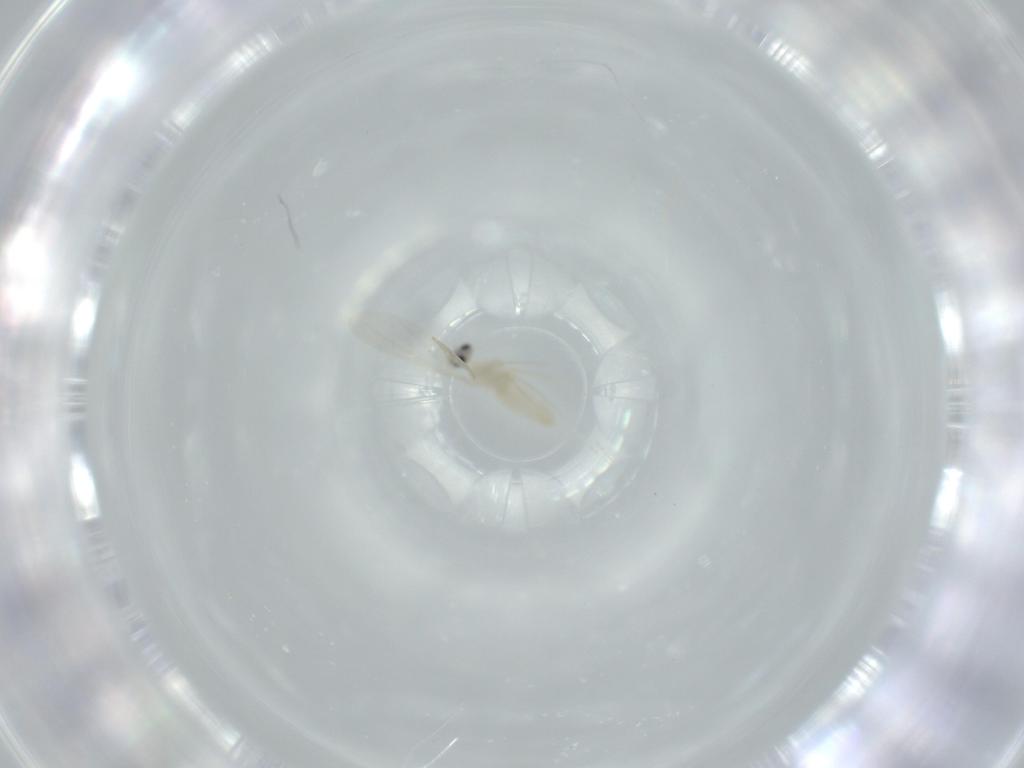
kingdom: Animalia
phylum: Arthropoda
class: Insecta
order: Diptera
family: Cecidomyiidae
